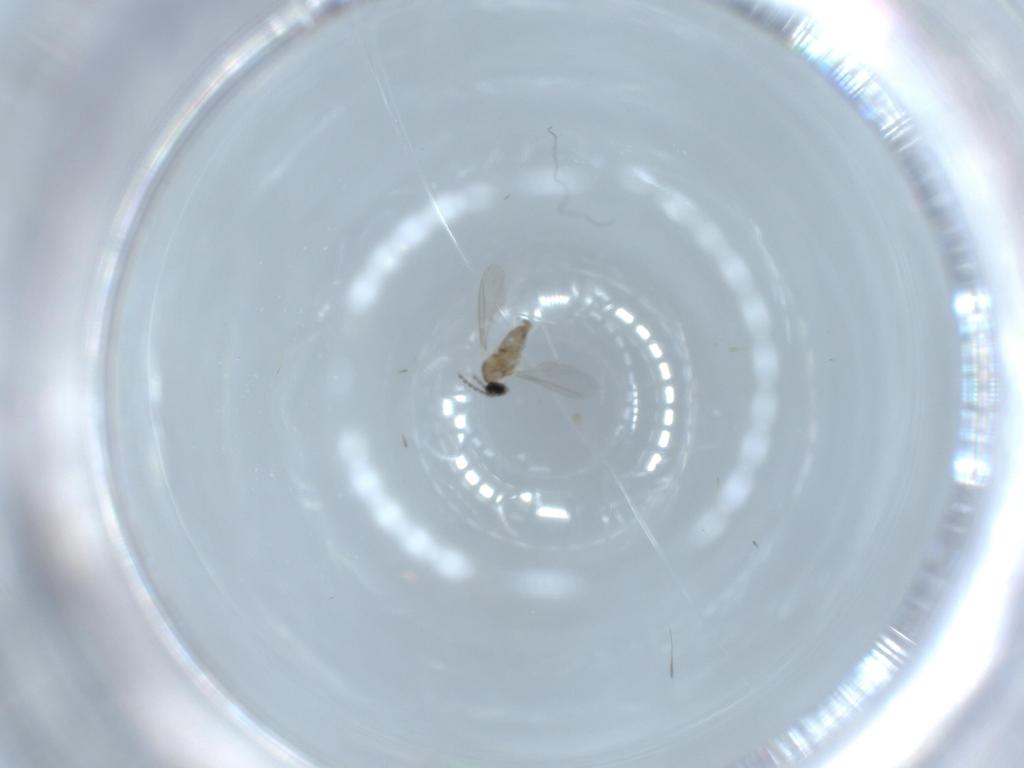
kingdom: Animalia
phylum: Arthropoda
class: Insecta
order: Diptera
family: Cecidomyiidae
